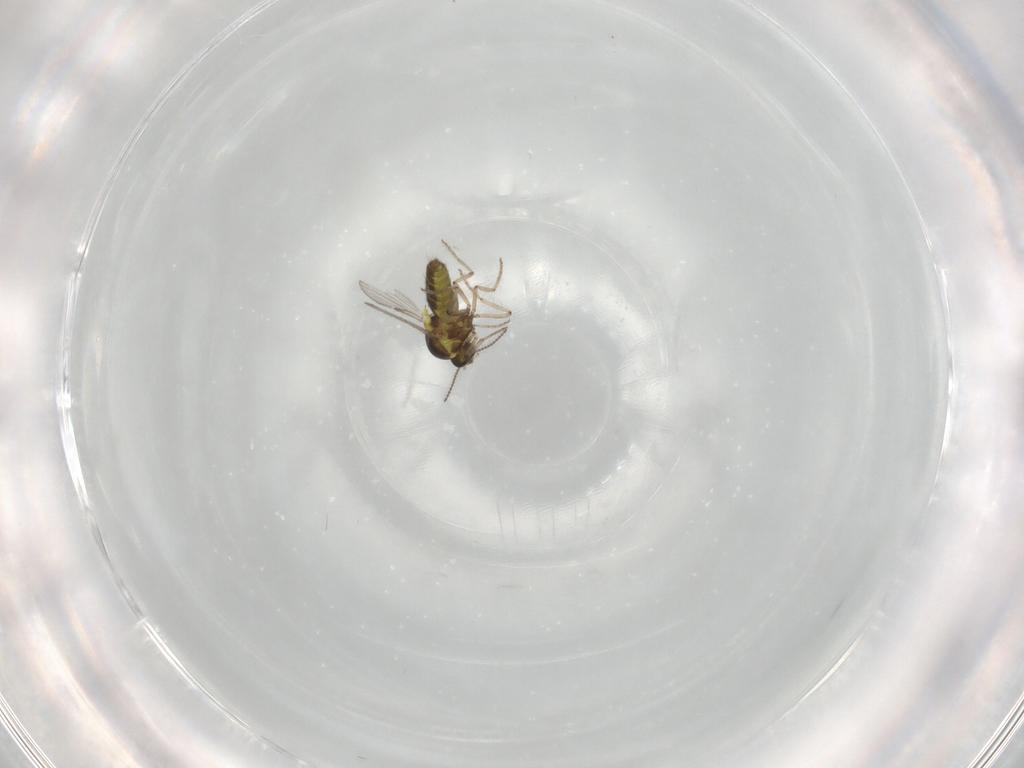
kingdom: Animalia
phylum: Arthropoda
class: Insecta
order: Diptera
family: Ceratopogonidae
